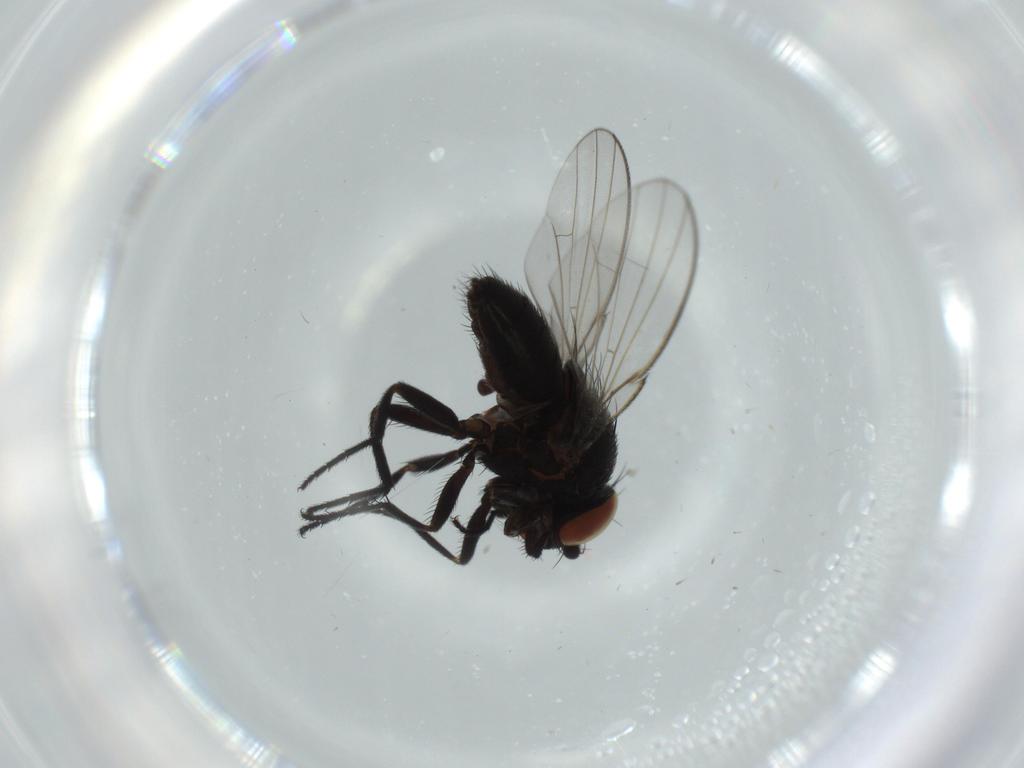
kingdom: Animalia
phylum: Arthropoda
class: Insecta
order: Diptera
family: Milichiidae
